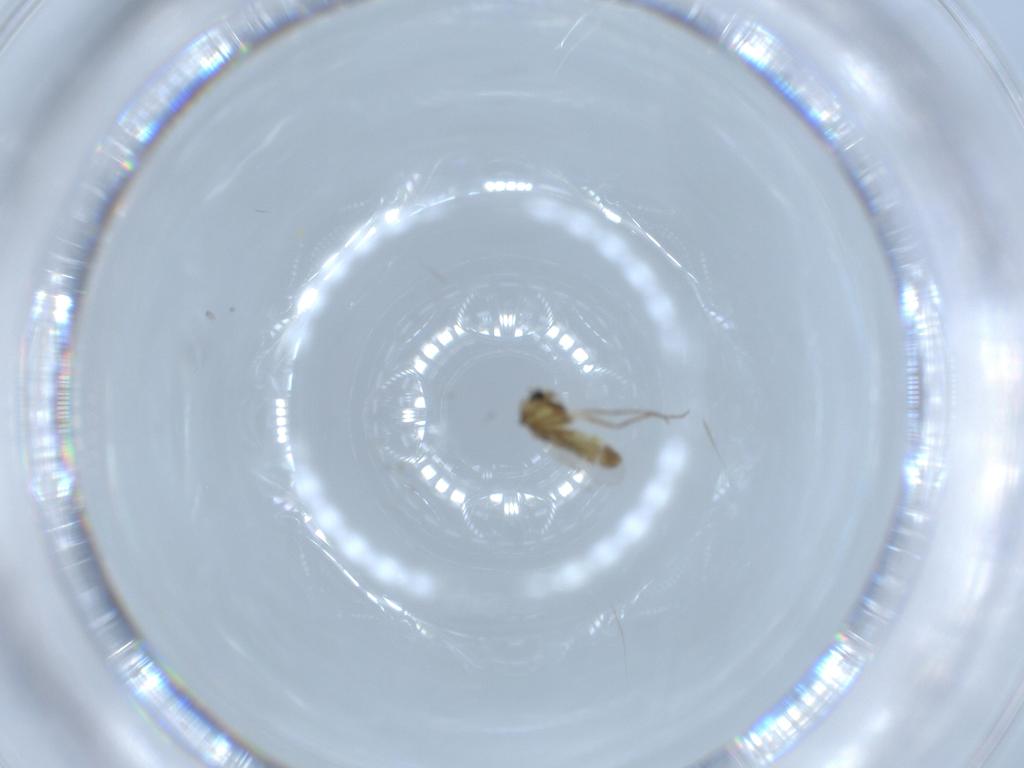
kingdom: Animalia
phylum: Arthropoda
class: Insecta
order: Diptera
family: Chironomidae
